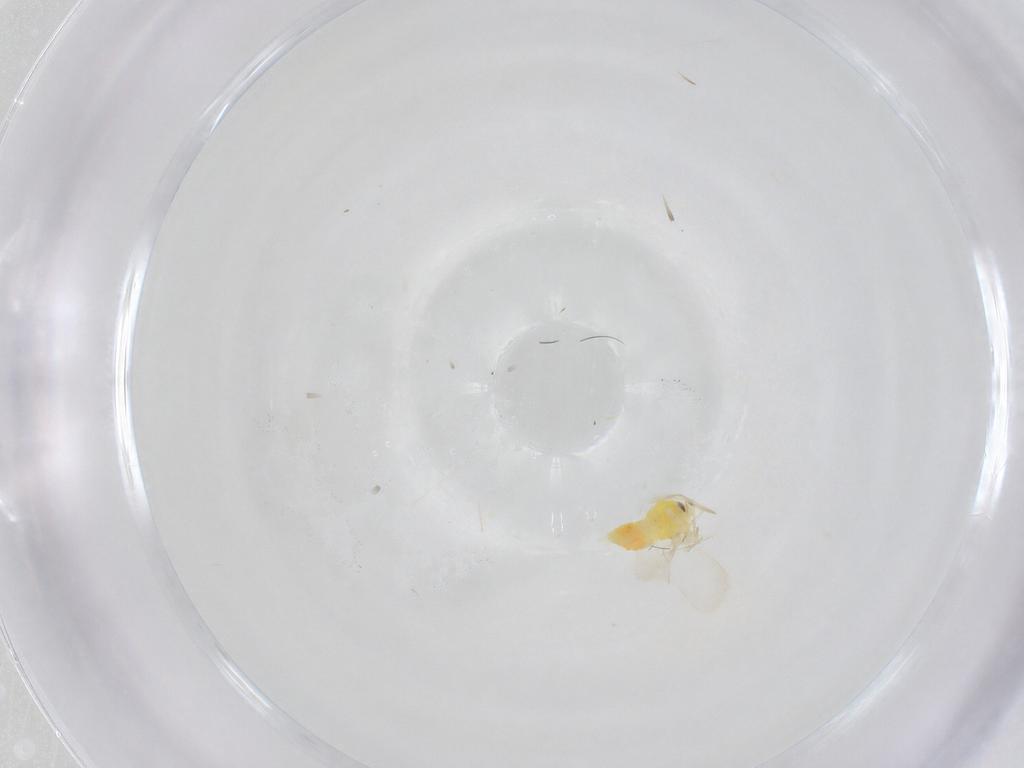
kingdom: Animalia
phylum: Arthropoda
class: Insecta
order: Hemiptera
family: Aleyrodidae
